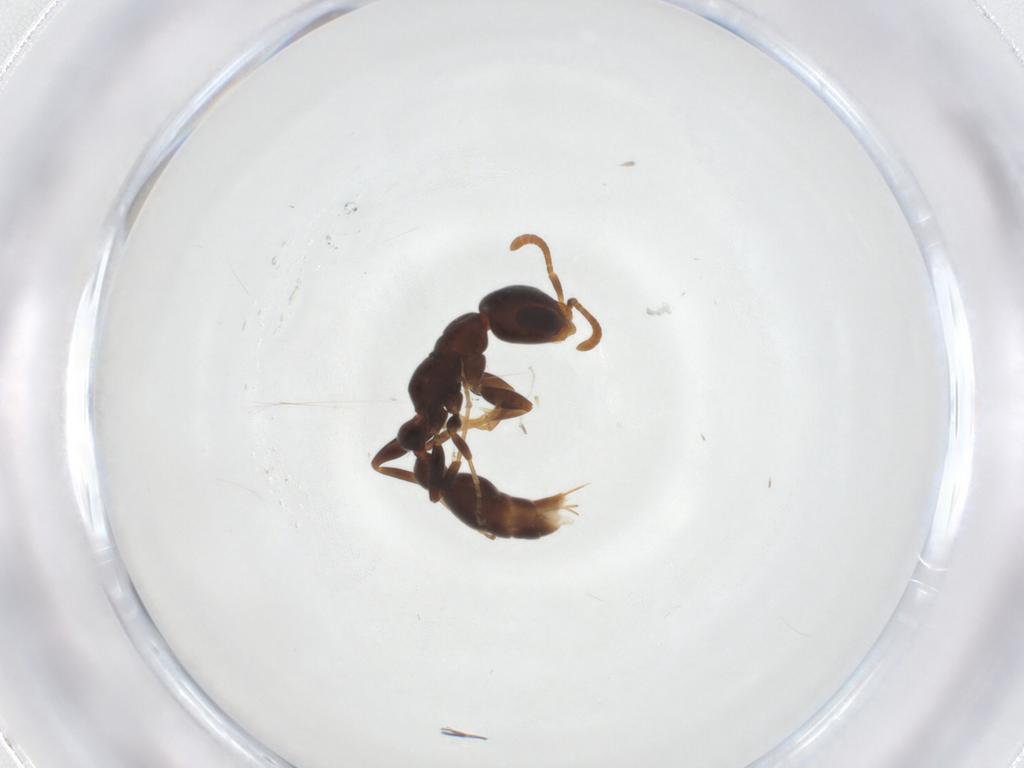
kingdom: Animalia
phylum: Arthropoda
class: Insecta
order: Hymenoptera
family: Formicidae
